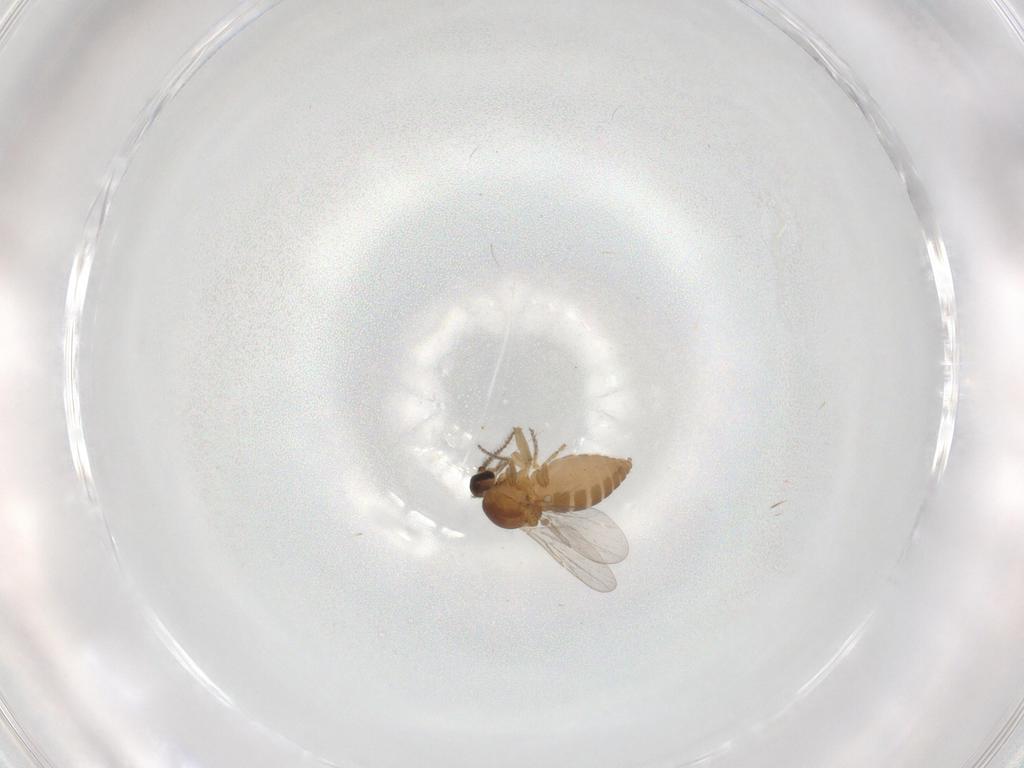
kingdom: Animalia
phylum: Arthropoda
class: Insecta
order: Diptera
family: Ceratopogonidae
